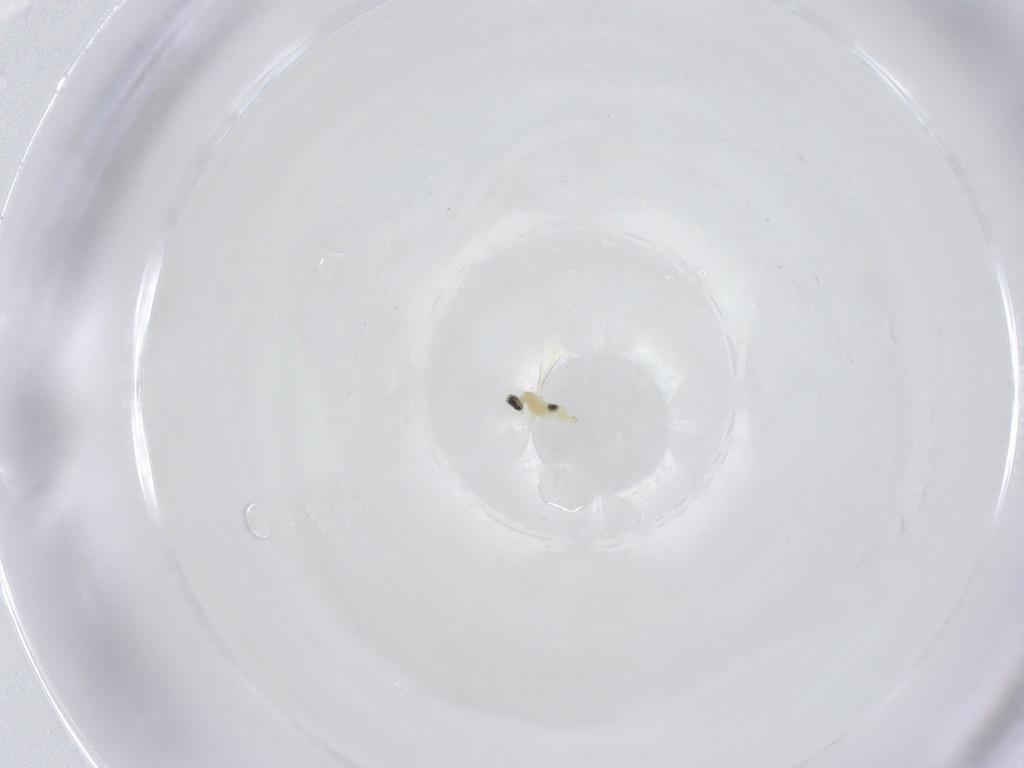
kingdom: Animalia
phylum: Arthropoda
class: Insecta
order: Diptera
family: Cecidomyiidae
